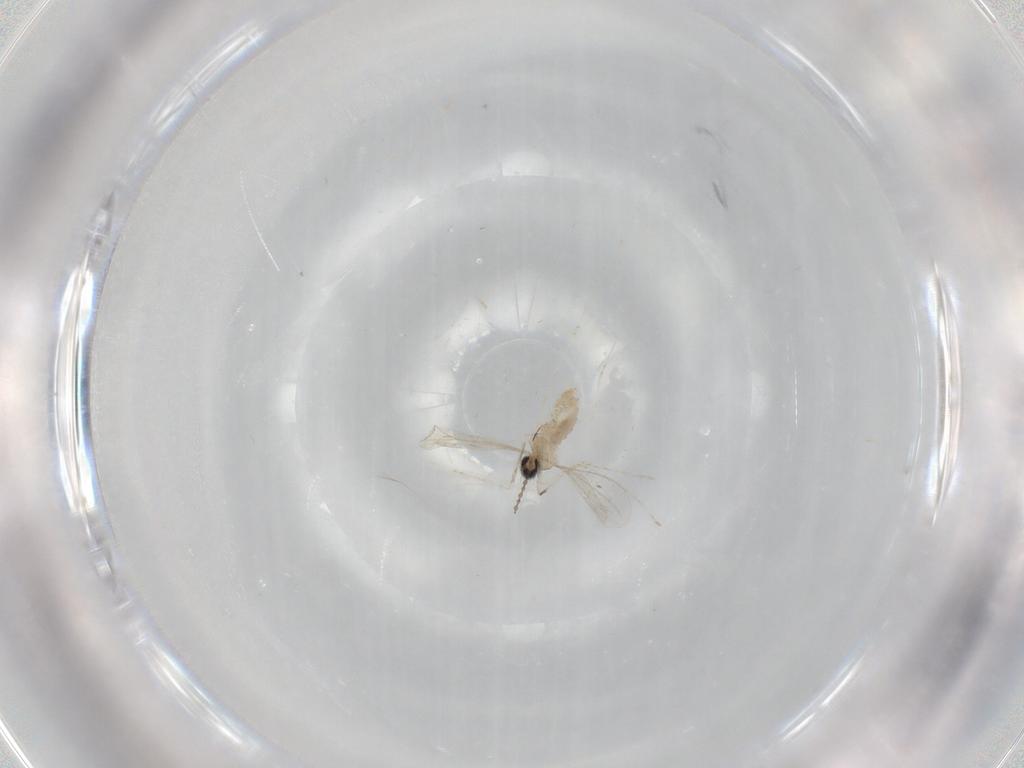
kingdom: Animalia
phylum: Arthropoda
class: Insecta
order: Diptera
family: Cecidomyiidae
